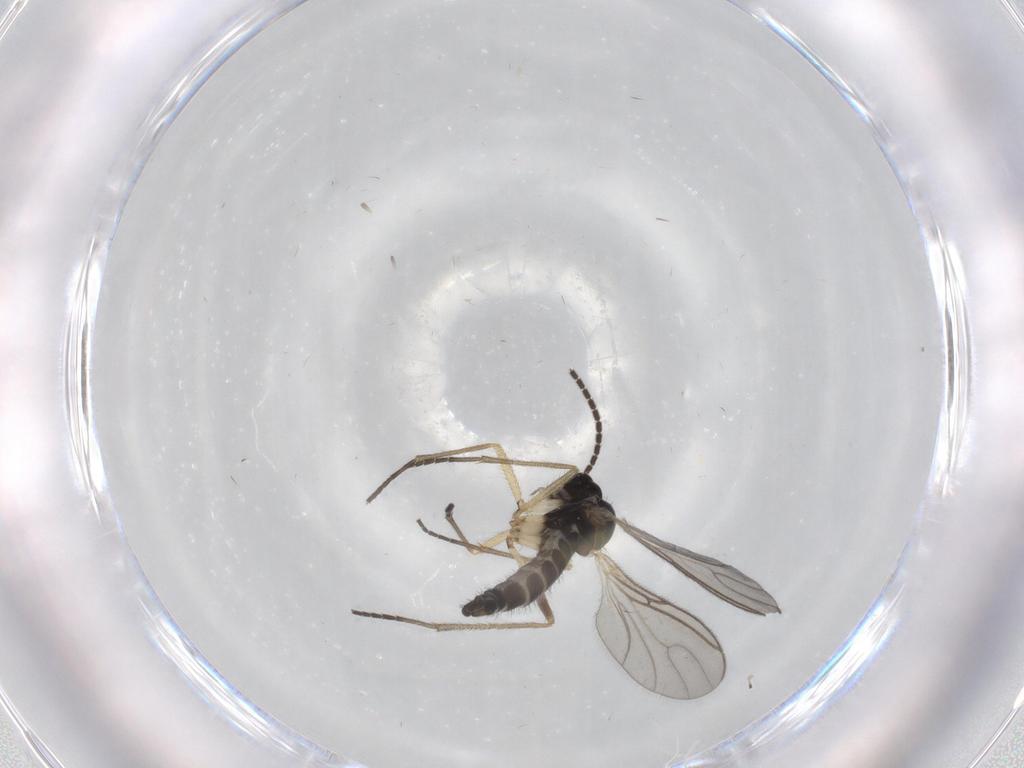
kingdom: Animalia
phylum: Arthropoda
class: Insecta
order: Diptera
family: Sciaridae
